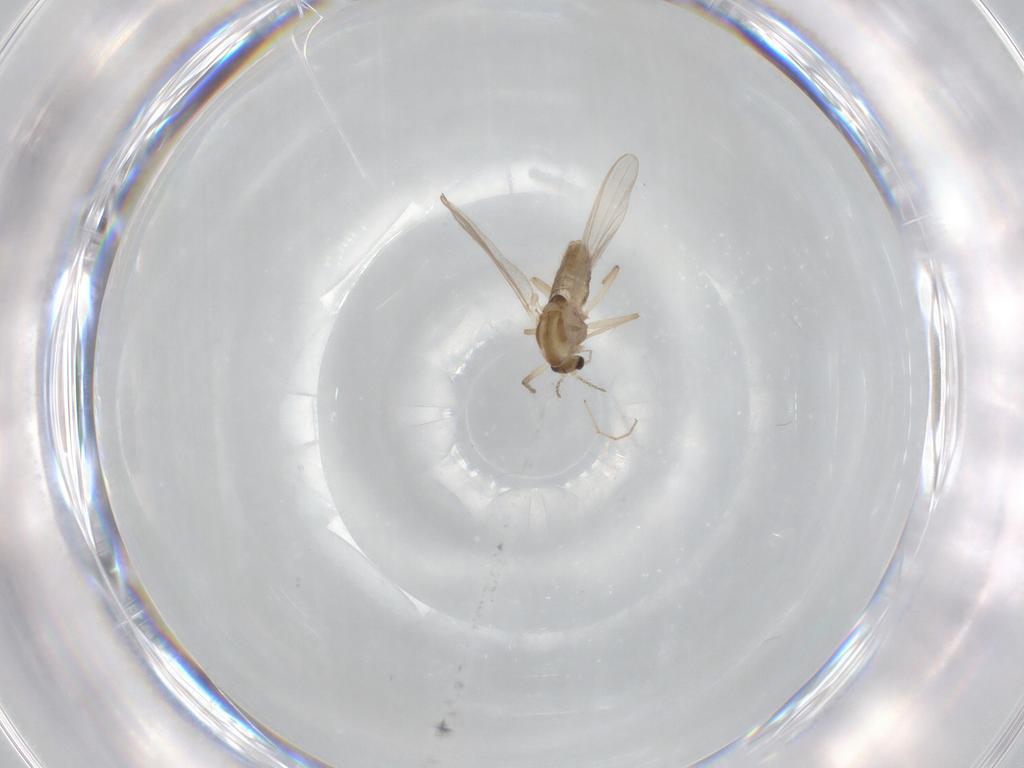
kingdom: Animalia
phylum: Arthropoda
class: Insecta
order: Diptera
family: Chironomidae
